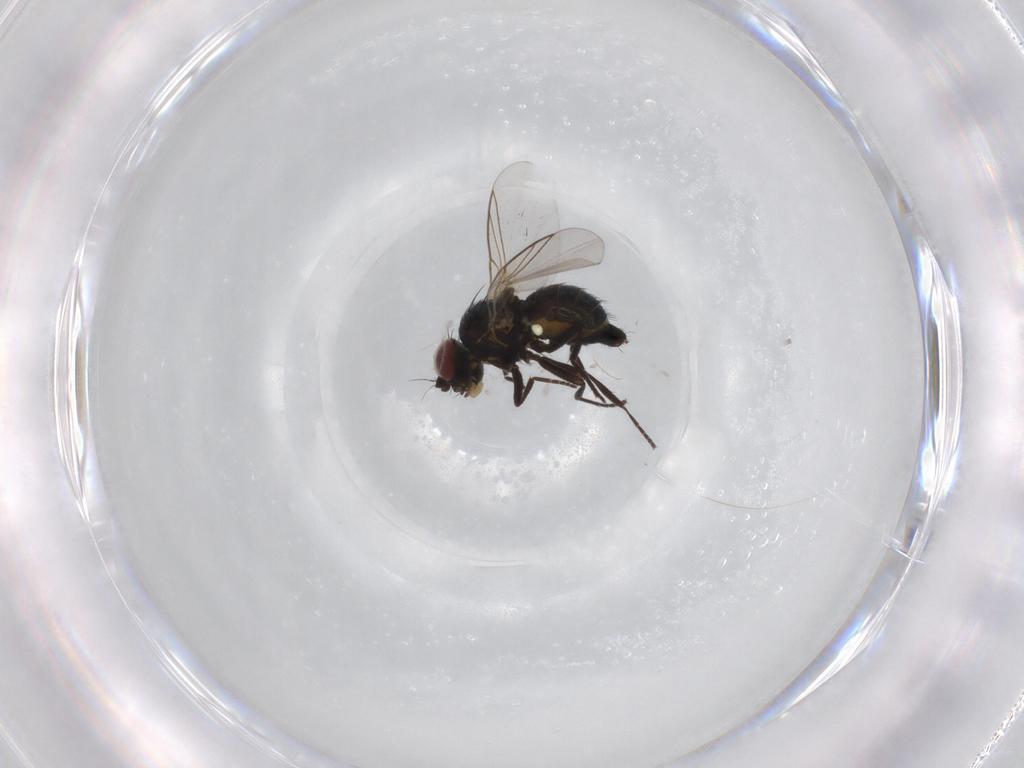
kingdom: Animalia
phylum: Arthropoda
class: Insecta
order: Diptera
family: Agromyzidae
